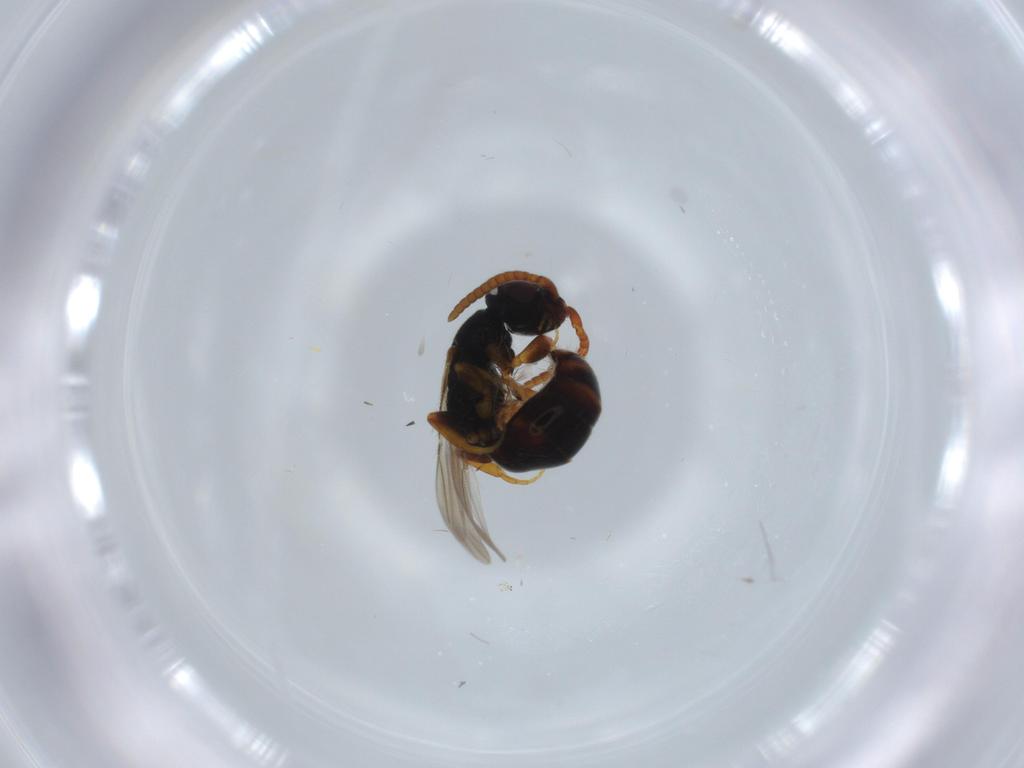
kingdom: Animalia
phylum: Arthropoda
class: Insecta
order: Hymenoptera
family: Bethylidae
